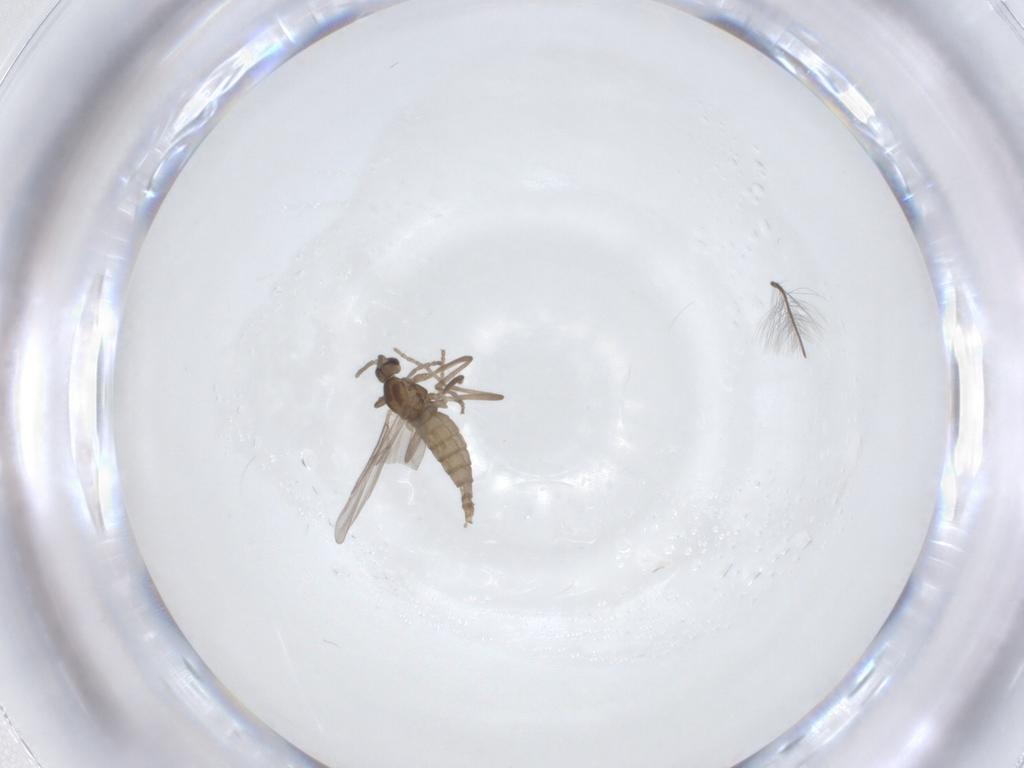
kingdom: Animalia
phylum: Arthropoda
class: Insecta
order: Diptera
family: Cecidomyiidae
